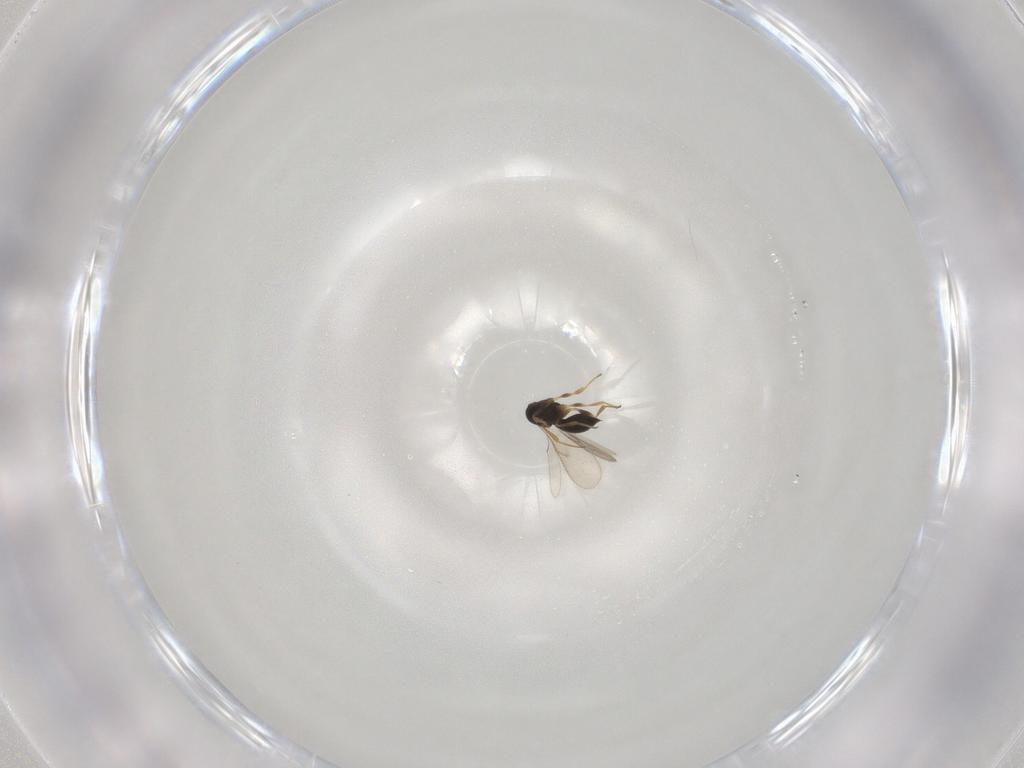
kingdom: Animalia
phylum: Arthropoda
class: Insecta
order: Hymenoptera
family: Scelionidae
